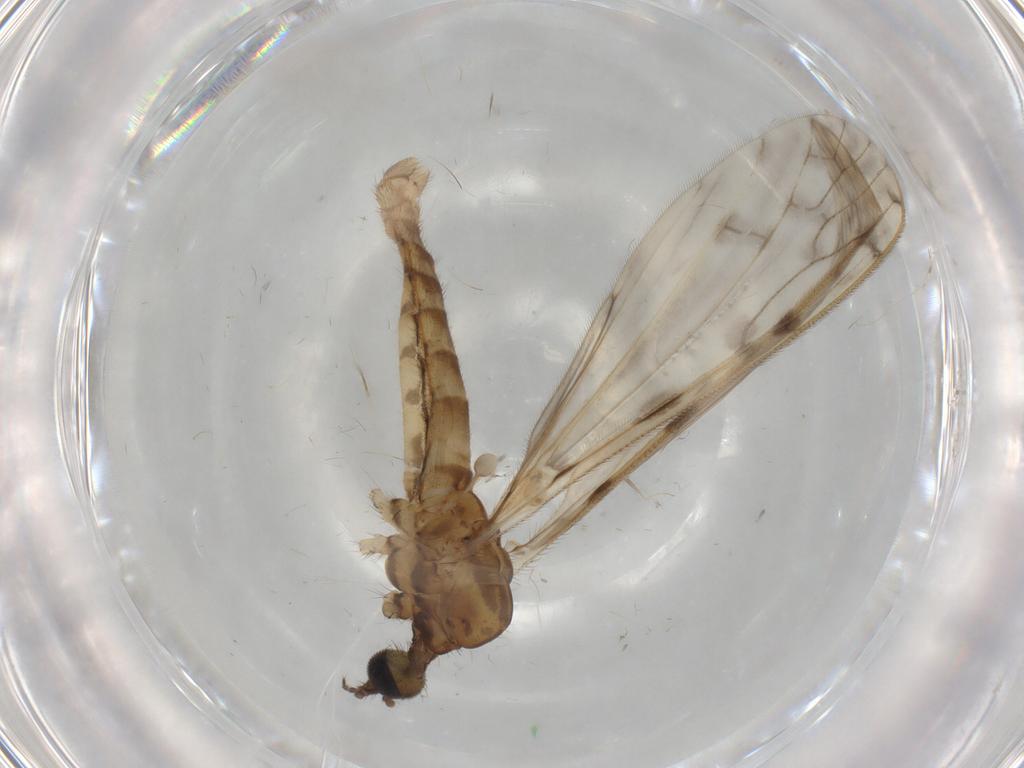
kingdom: Animalia
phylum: Arthropoda
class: Insecta
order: Diptera
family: Limoniidae
